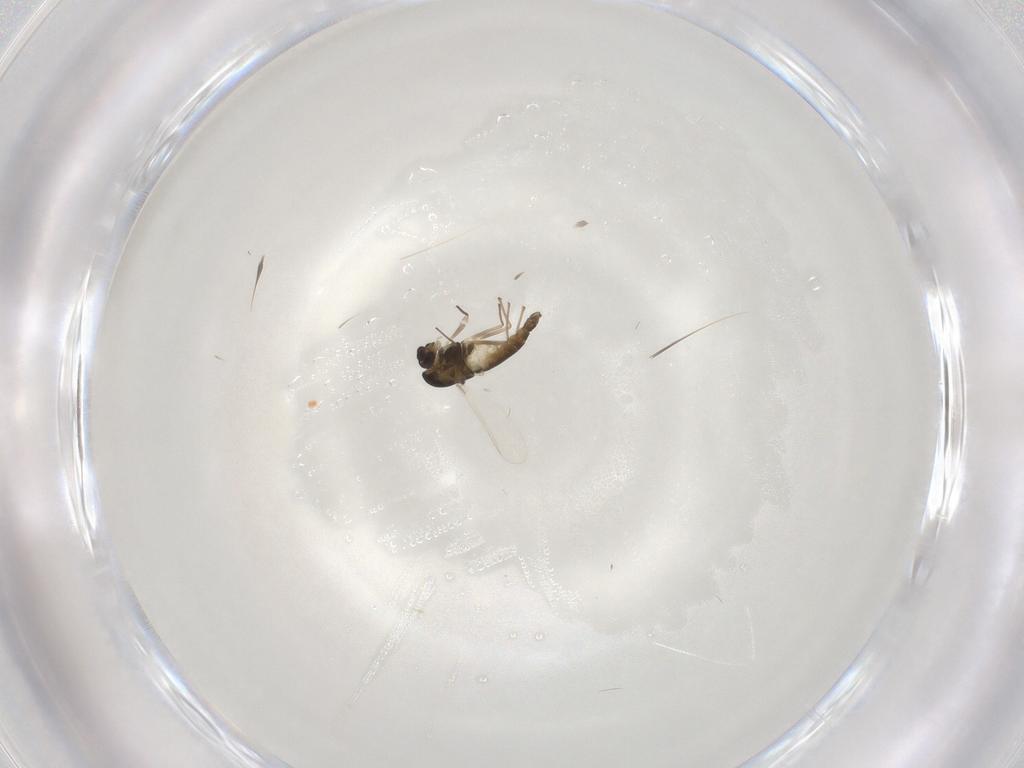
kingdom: Animalia
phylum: Arthropoda
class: Insecta
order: Diptera
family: Chironomidae
